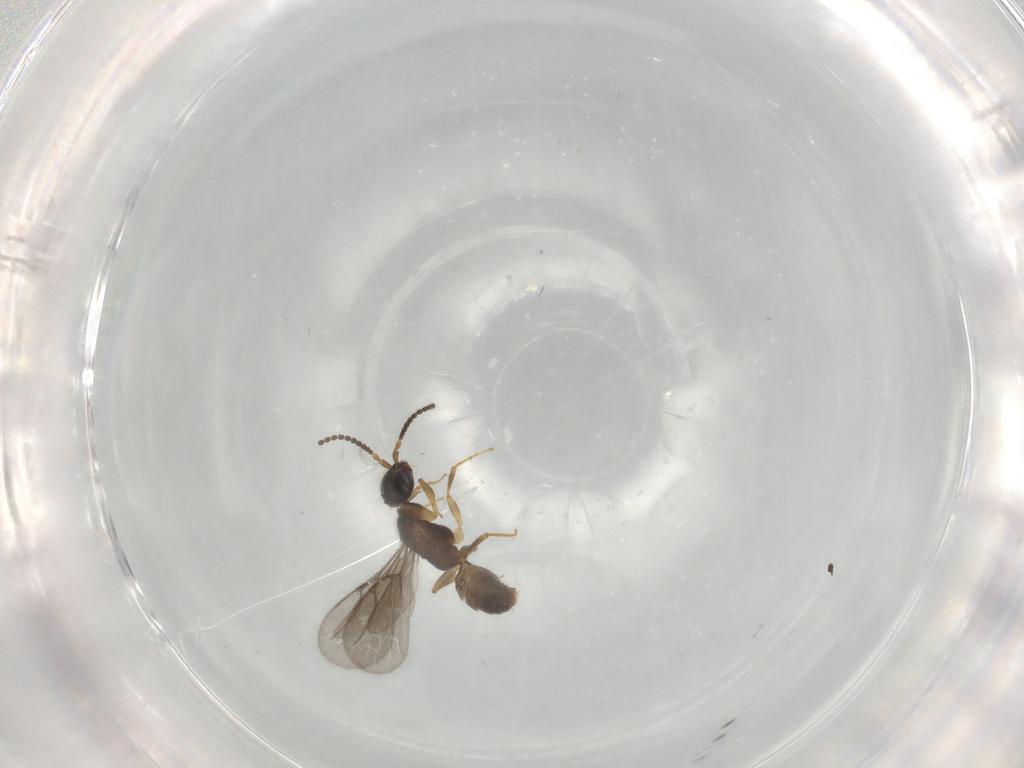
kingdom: Animalia
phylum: Arthropoda
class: Insecta
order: Hymenoptera
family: Bethylidae
